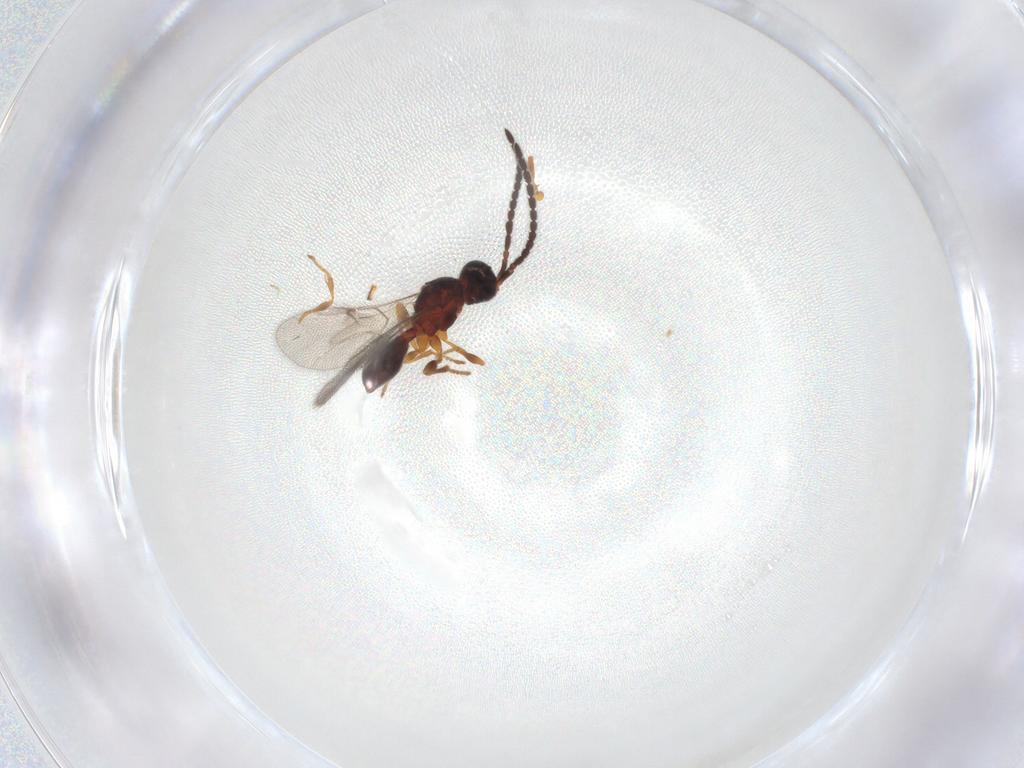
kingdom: Animalia
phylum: Arthropoda
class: Insecta
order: Hymenoptera
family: Diapriidae
